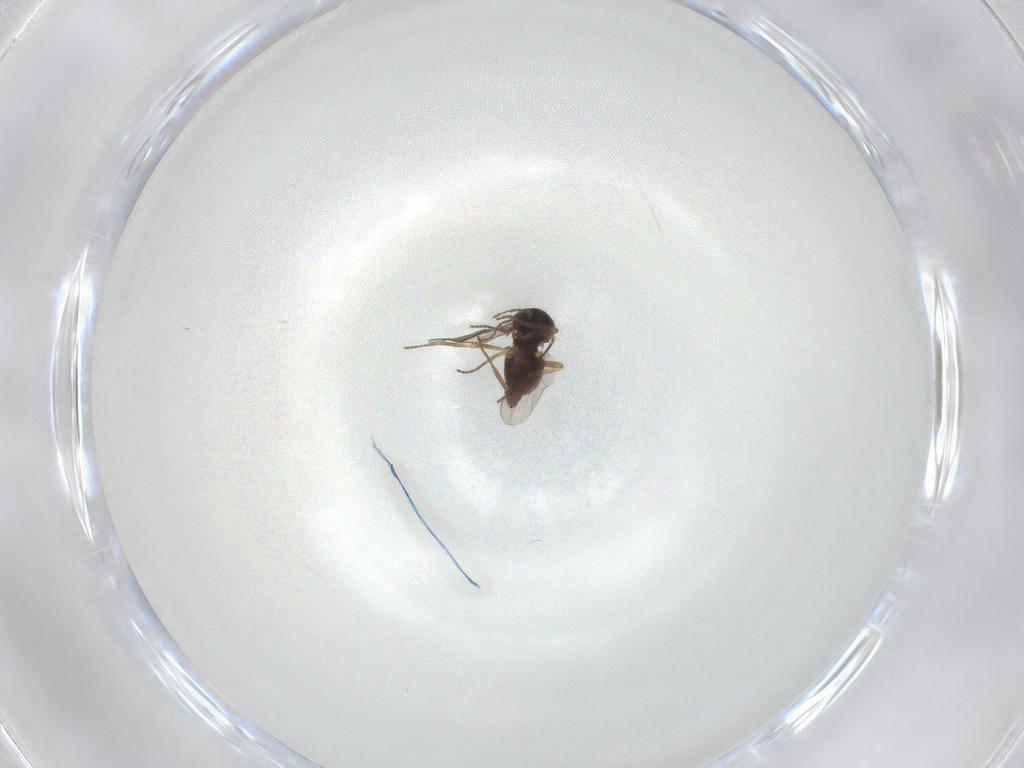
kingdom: Animalia
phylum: Arthropoda
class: Insecta
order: Diptera
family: Ceratopogonidae
